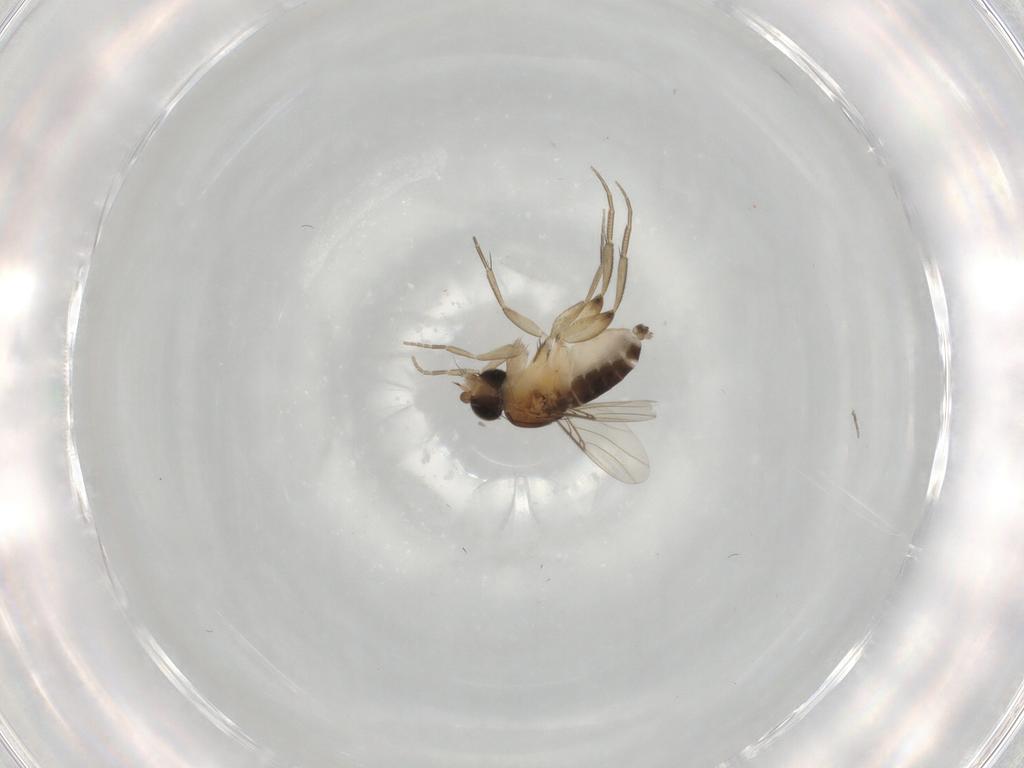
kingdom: Animalia
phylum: Arthropoda
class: Insecta
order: Diptera
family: Phoridae
